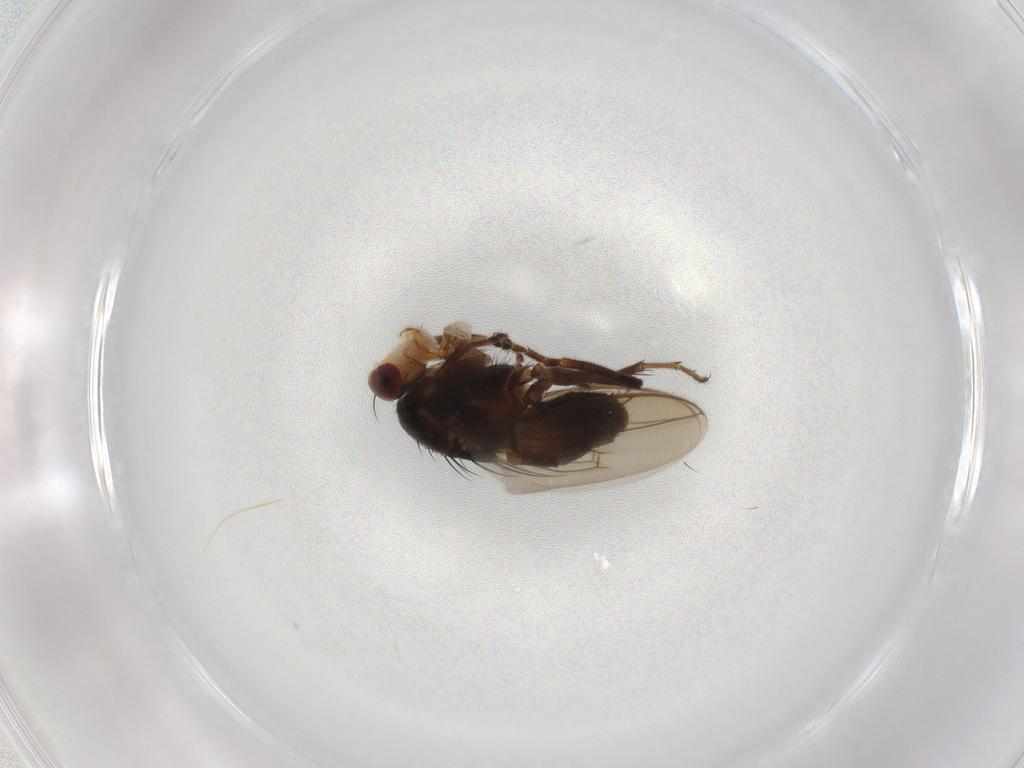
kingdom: Animalia
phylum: Arthropoda
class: Insecta
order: Diptera
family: Sphaeroceridae
